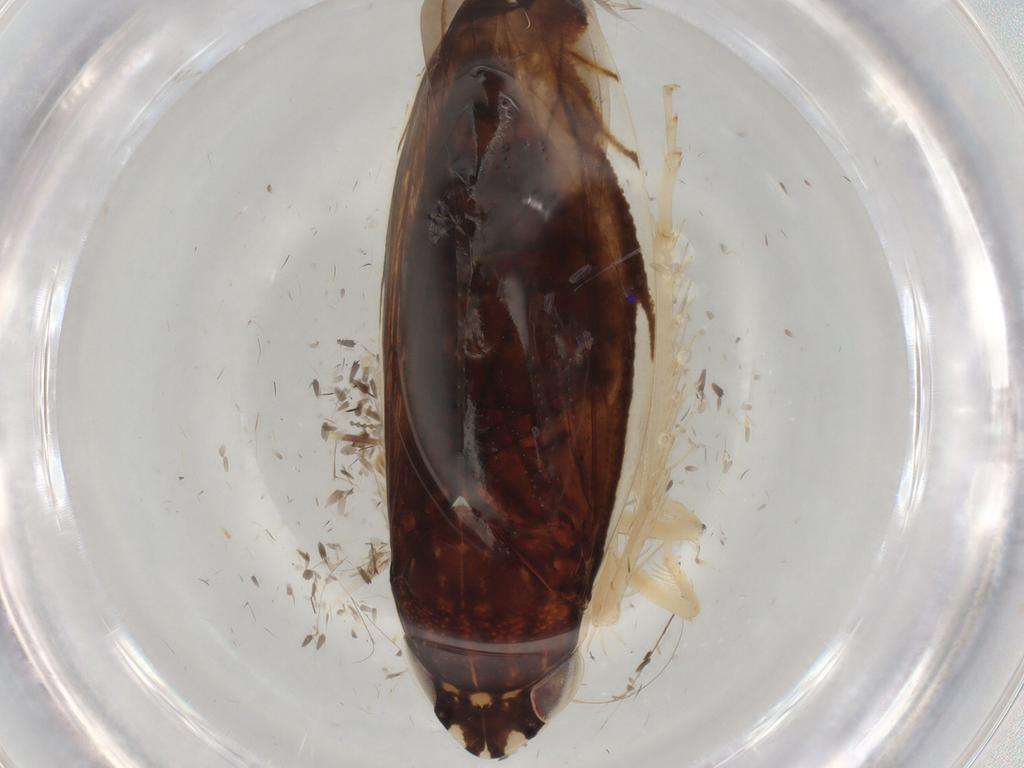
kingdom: Animalia
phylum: Arthropoda
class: Insecta
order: Hemiptera
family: Aleyrodidae
